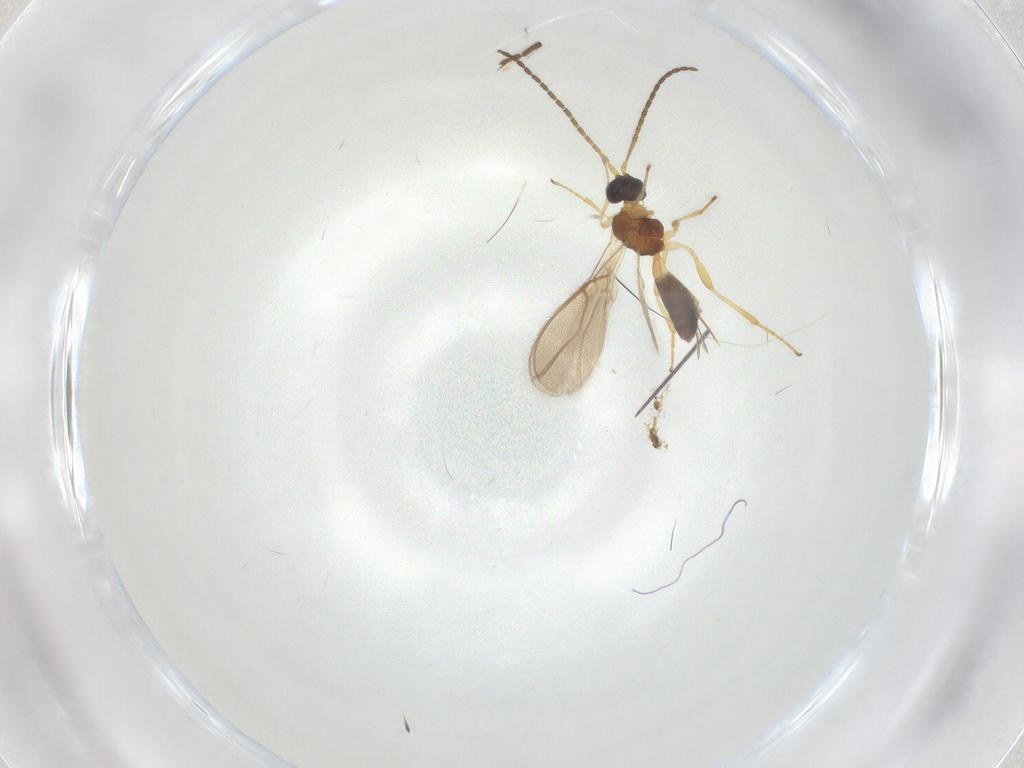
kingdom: Animalia
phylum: Arthropoda
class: Insecta
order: Hymenoptera
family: Braconidae
